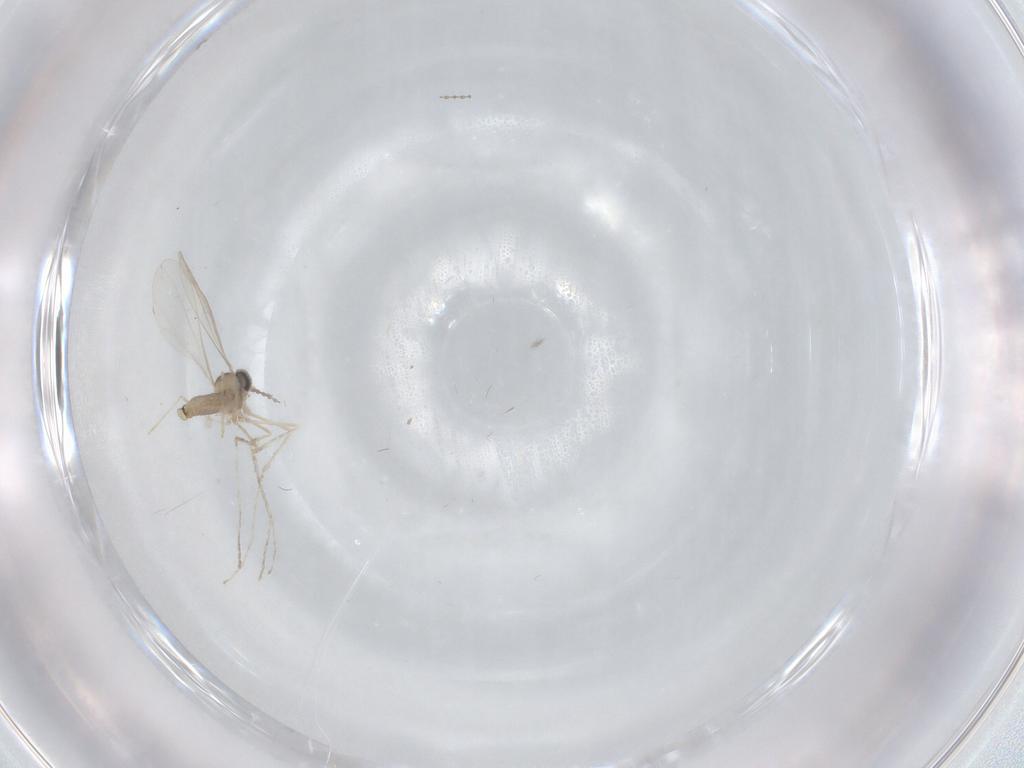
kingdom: Animalia
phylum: Arthropoda
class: Insecta
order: Diptera
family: Cecidomyiidae
